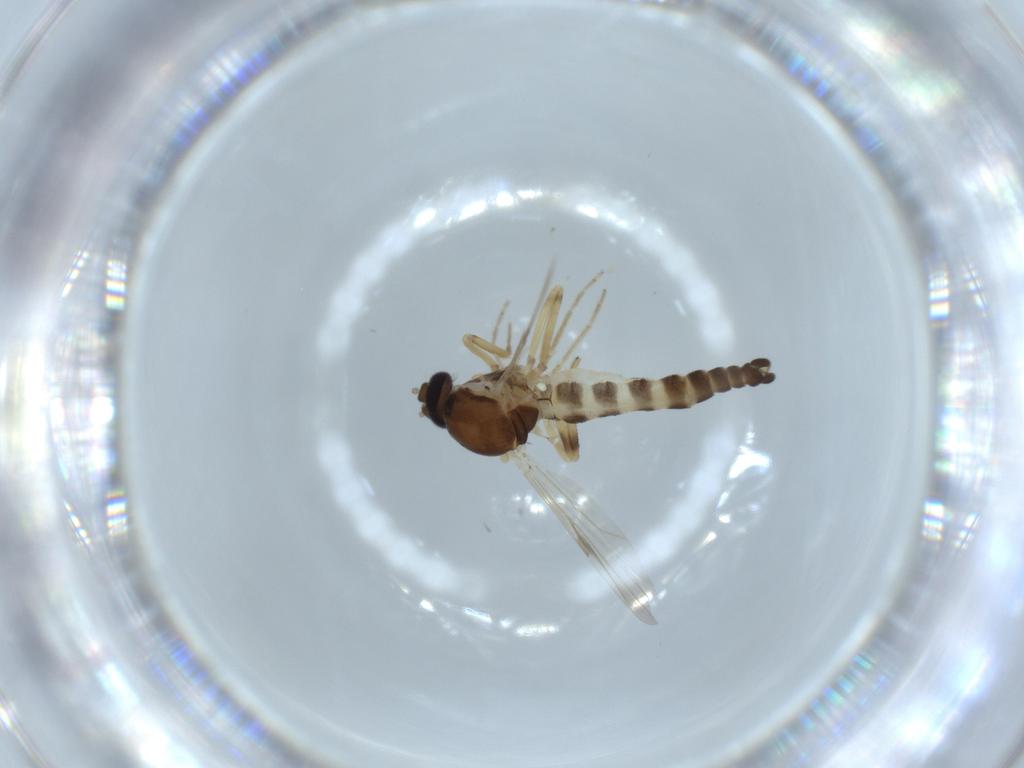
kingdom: Animalia
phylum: Arthropoda
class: Insecta
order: Diptera
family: Ceratopogonidae
